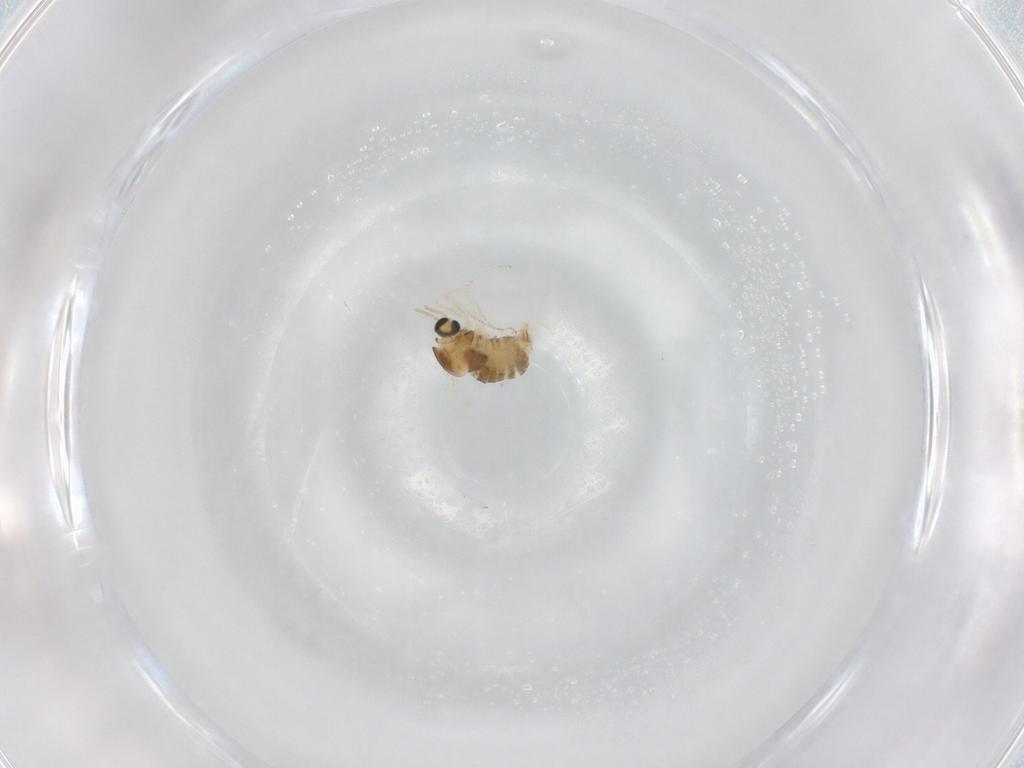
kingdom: Animalia
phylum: Arthropoda
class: Insecta
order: Diptera
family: Cecidomyiidae
